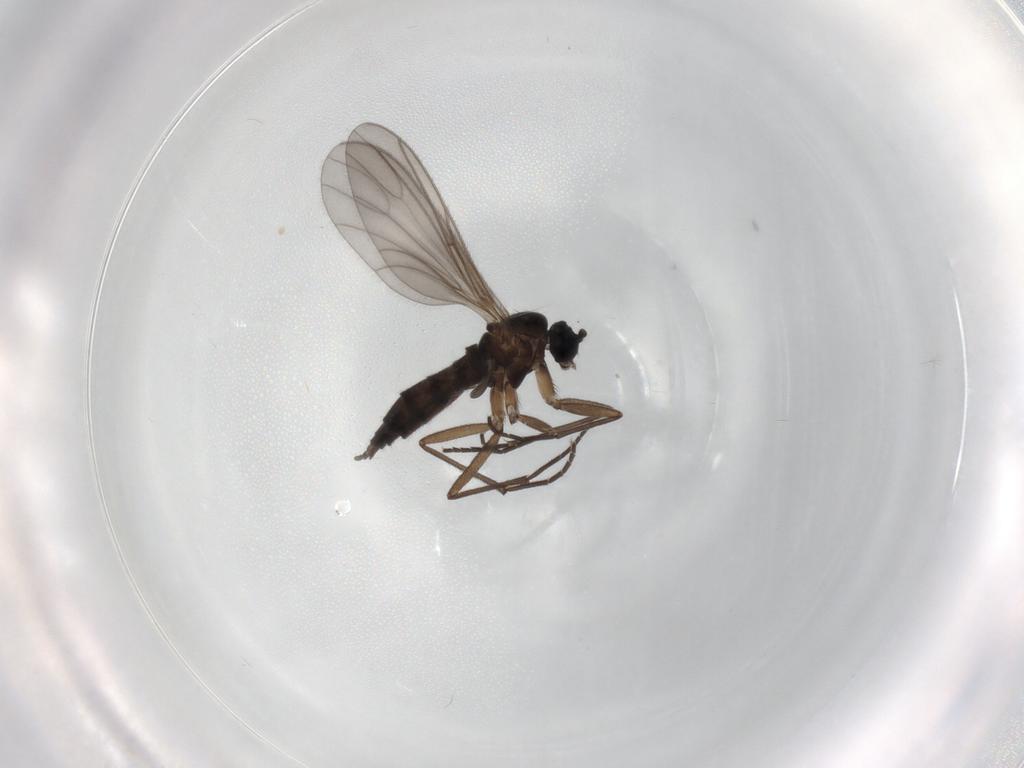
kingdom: Animalia
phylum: Arthropoda
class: Insecta
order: Diptera
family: Sciaridae
